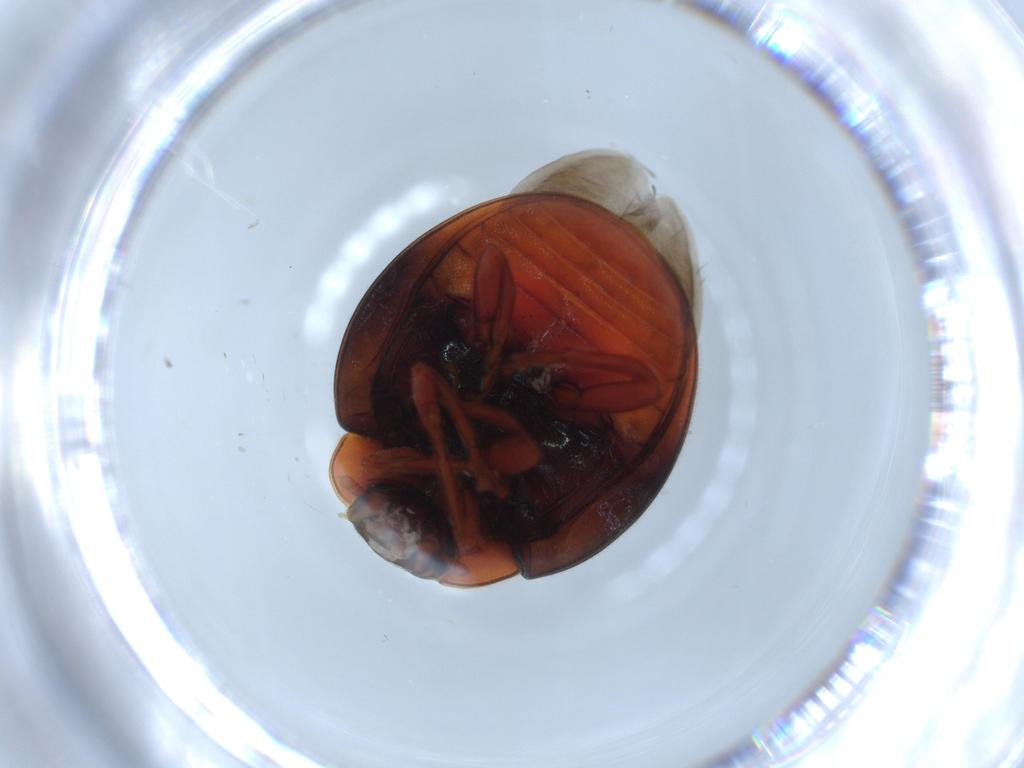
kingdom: Animalia
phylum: Arthropoda
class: Insecta
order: Coleoptera
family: Coccinellidae
